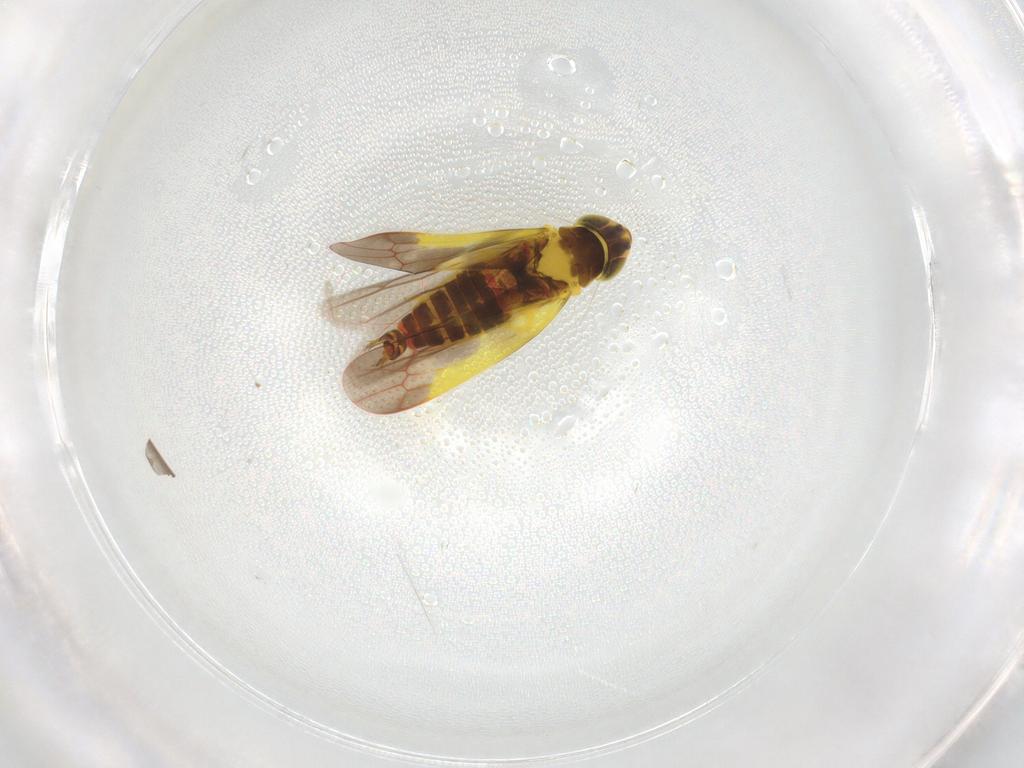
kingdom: Animalia
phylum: Arthropoda
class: Insecta
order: Hemiptera
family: Cicadellidae
